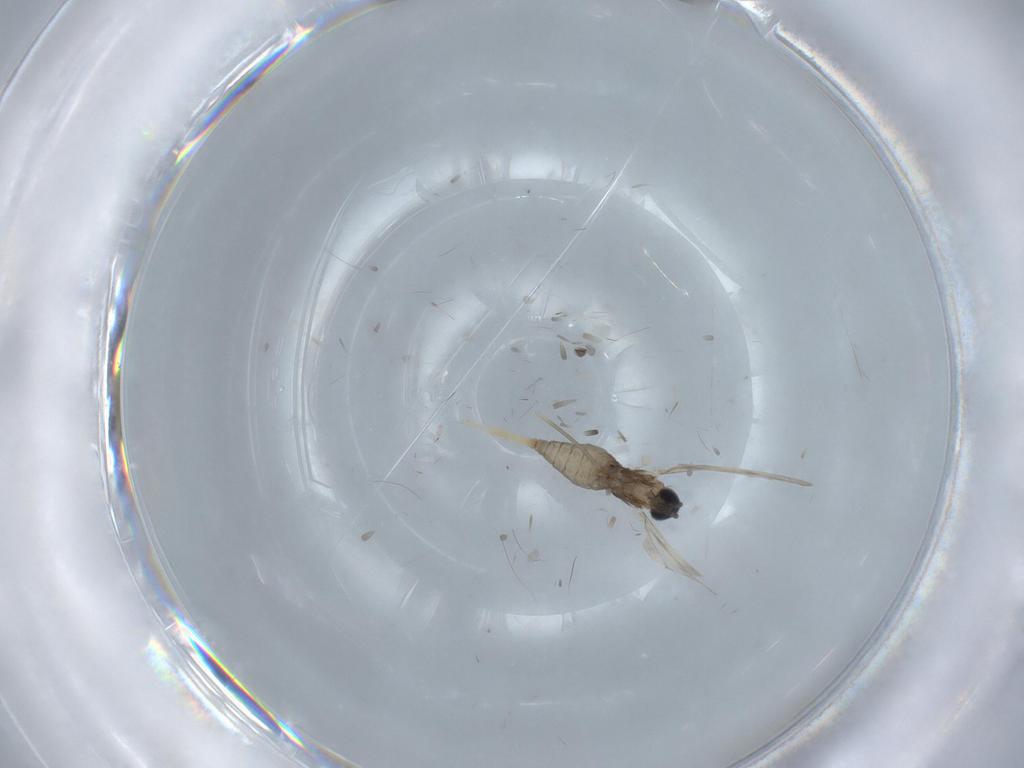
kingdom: Animalia
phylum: Arthropoda
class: Insecta
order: Diptera
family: Cecidomyiidae
